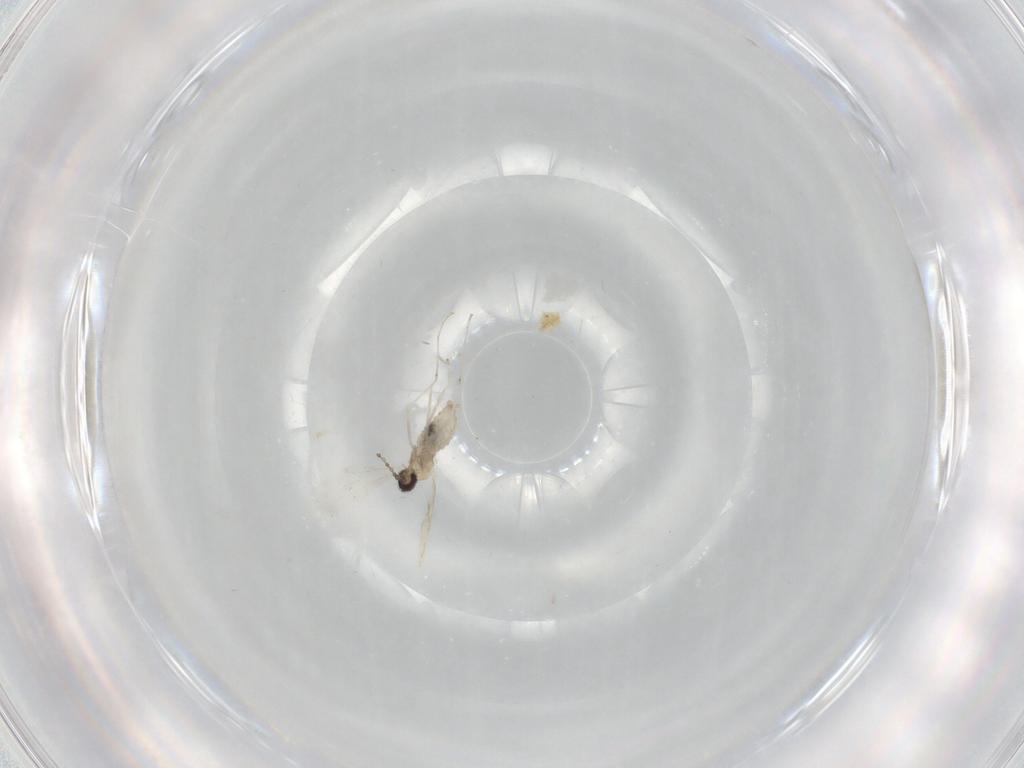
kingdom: Animalia
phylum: Arthropoda
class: Insecta
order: Diptera
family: Cecidomyiidae
